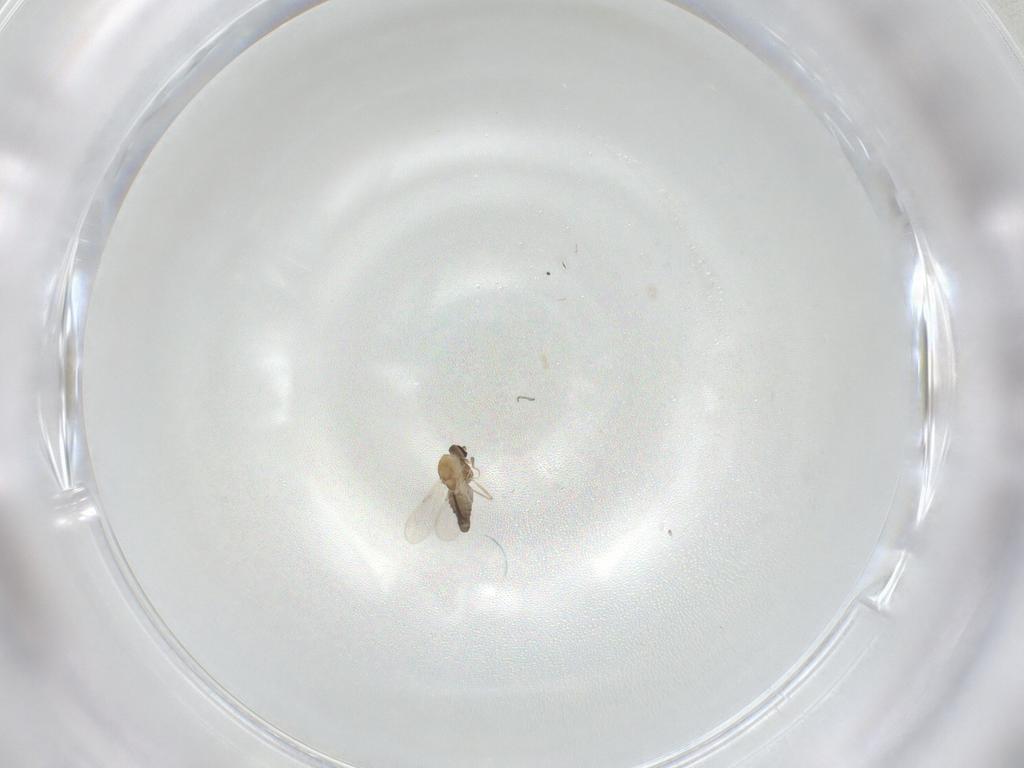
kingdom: Animalia
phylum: Arthropoda
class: Insecta
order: Diptera
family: Ceratopogonidae
